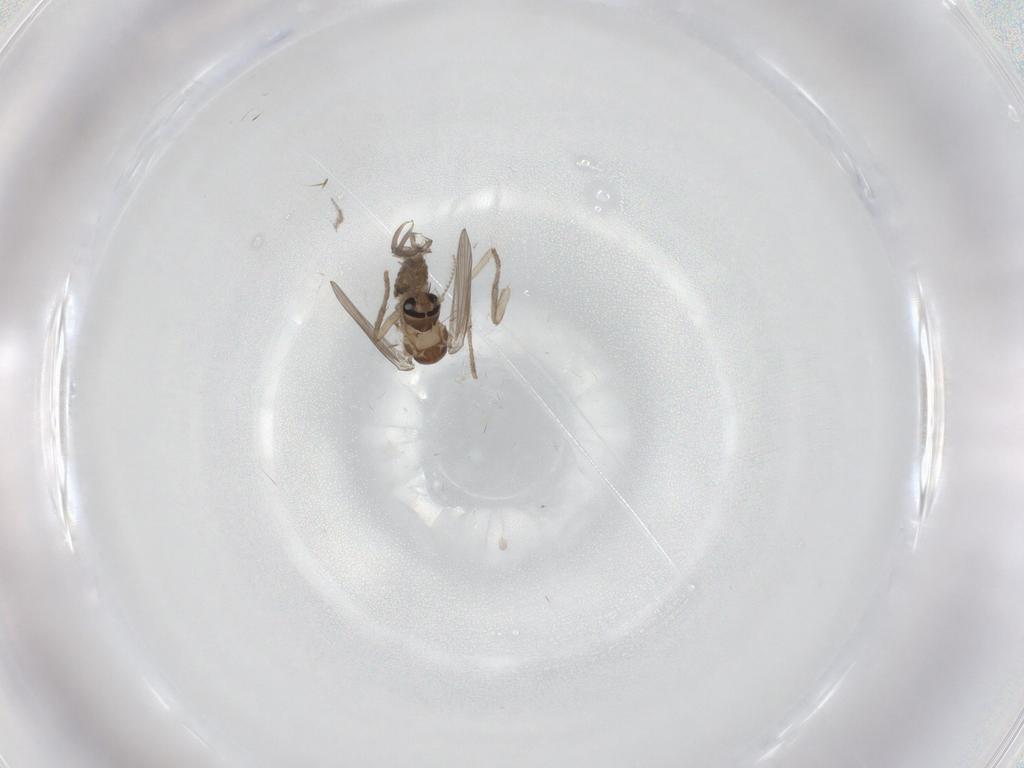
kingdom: Animalia
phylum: Arthropoda
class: Insecta
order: Diptera
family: Psychodidae
